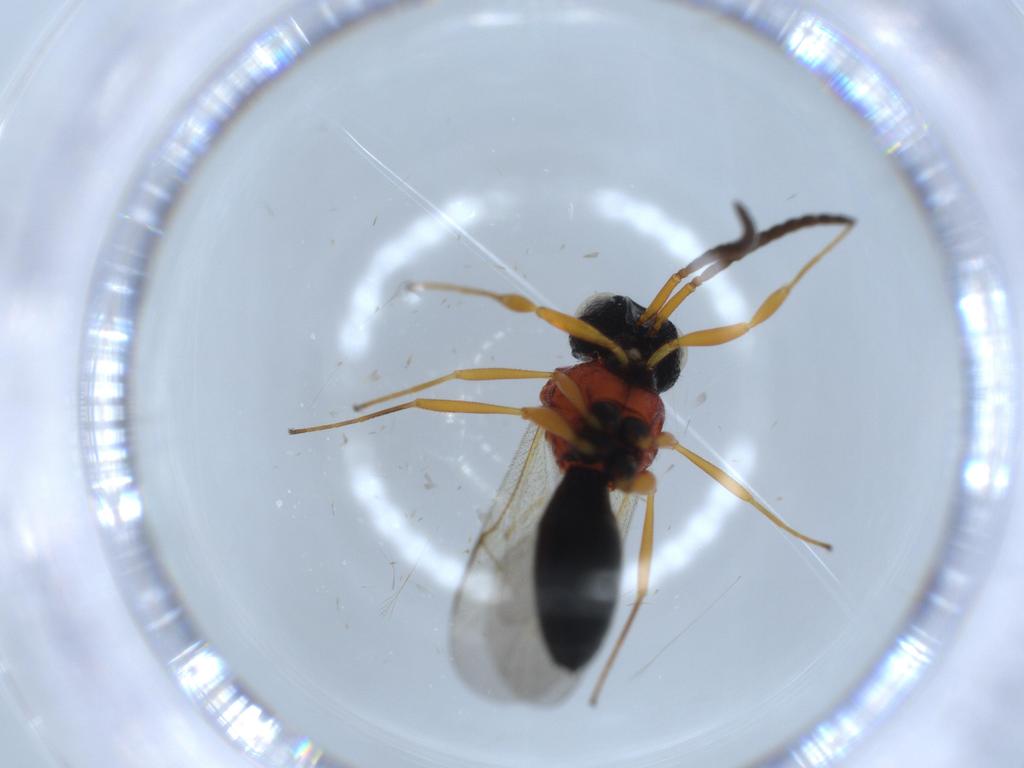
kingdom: Animalia
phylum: Arthropoda
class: Insecta
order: Hymenoptera
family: Scelionidae
